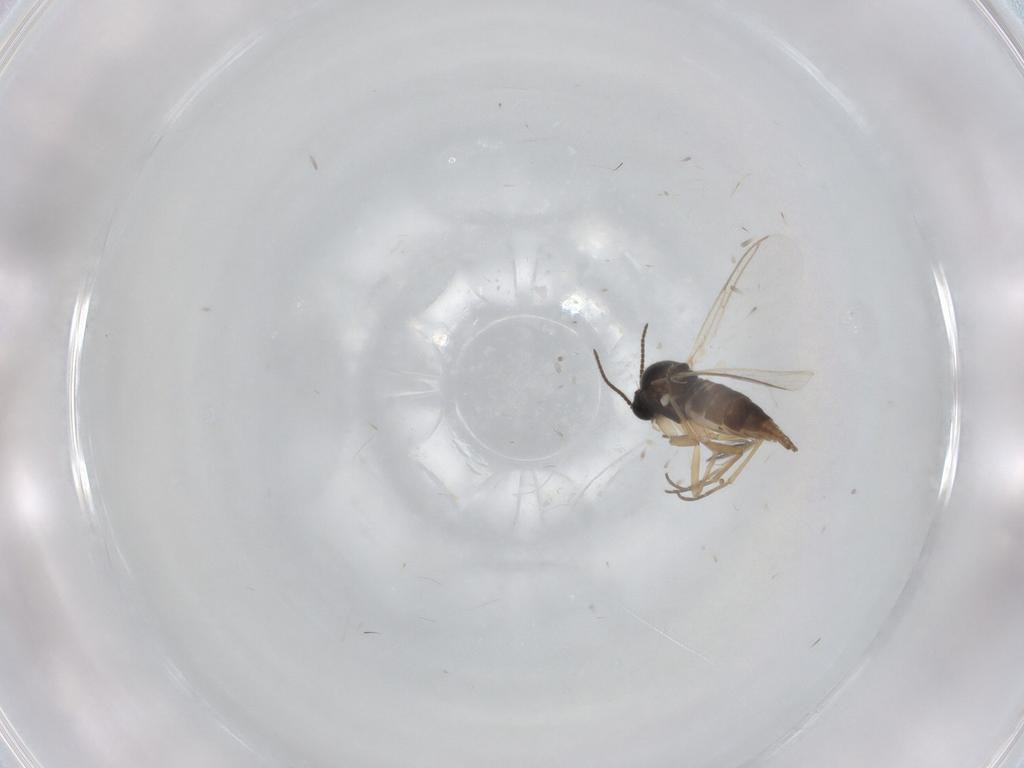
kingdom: Animalia
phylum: Arthropoda
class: Insecta
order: Diptera
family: Sciaridae
